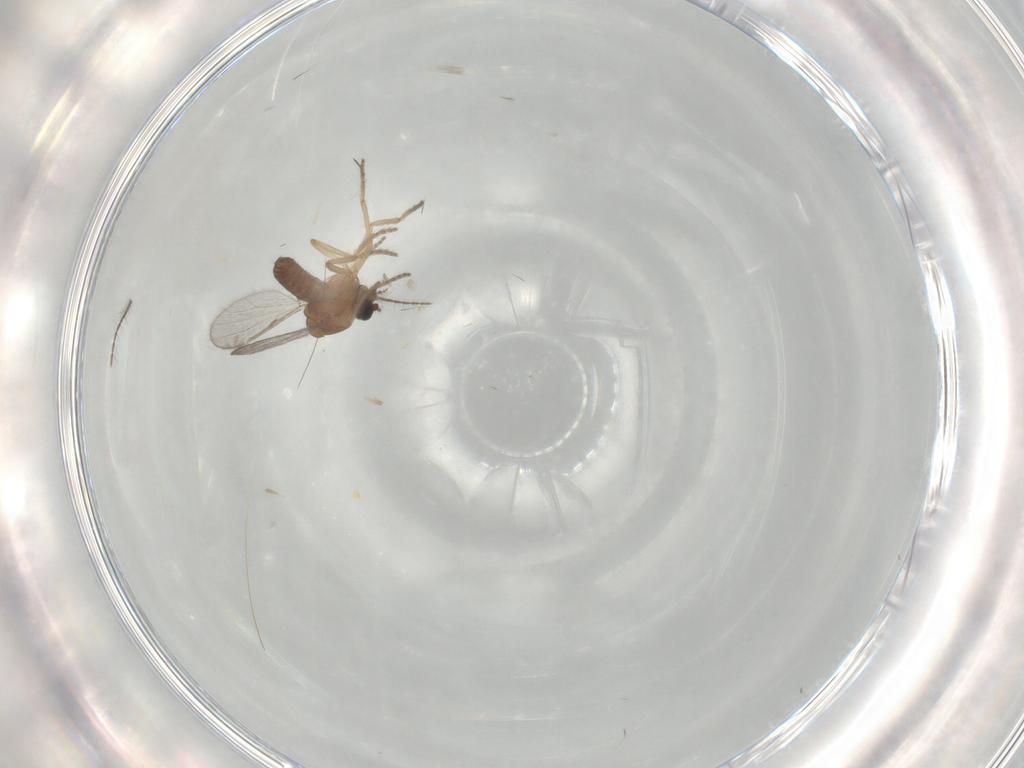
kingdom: Animalia
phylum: Arthropoda
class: Insecta
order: Diptera
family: Ceratopogonidae
